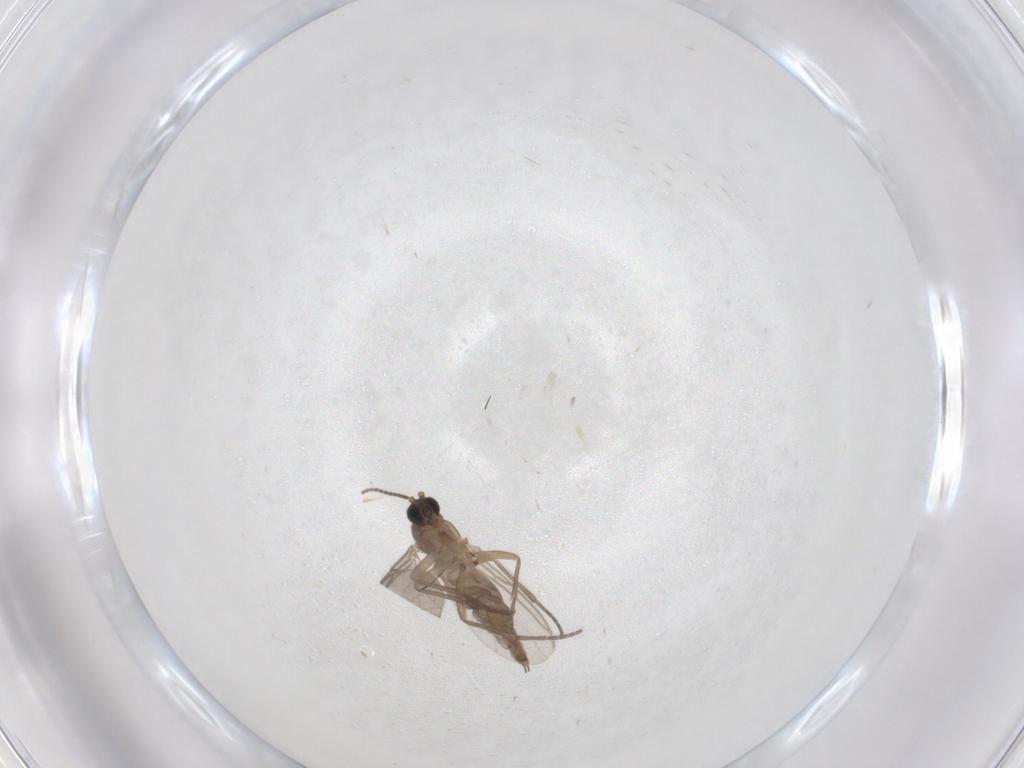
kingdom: Animalia
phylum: Arthropoda
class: Insecta
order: Diptera
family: Sciaridae
